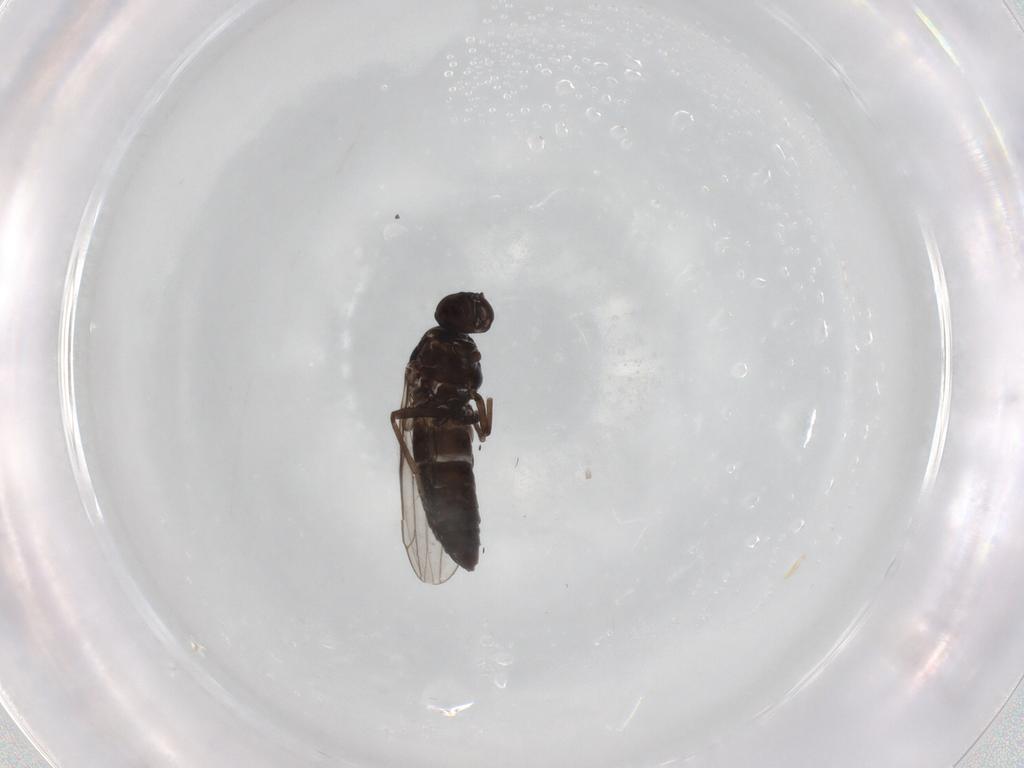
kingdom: Animalia
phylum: Arthropoda
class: Insecta
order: Diptera
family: Scenopinidae
